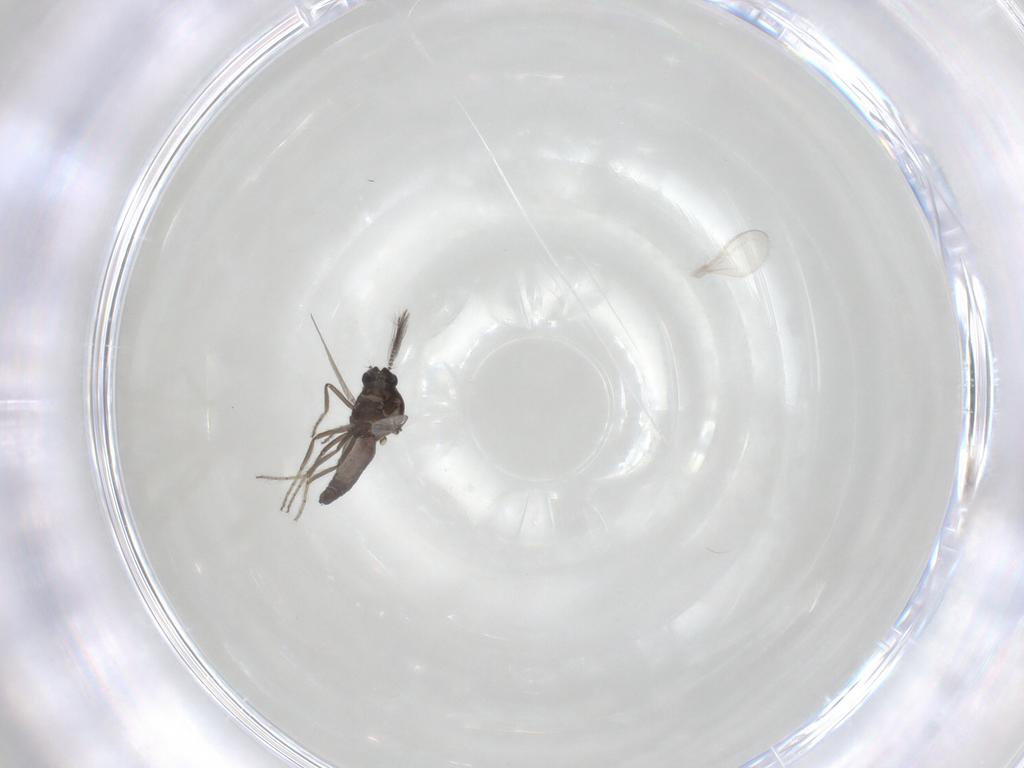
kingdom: Animalia
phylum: Arthropoda
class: Insecta
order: Diptera
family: Ceratopogonidae
